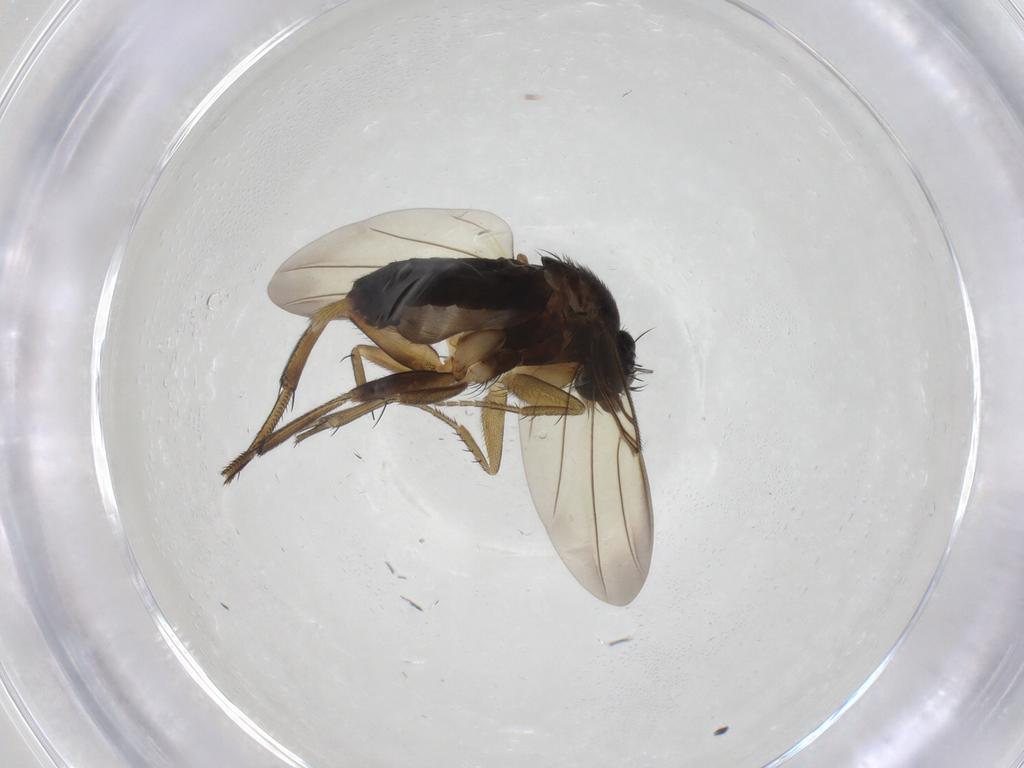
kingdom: Animalia
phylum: Arthropoda
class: Insecta
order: Diptera
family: Phoridae
